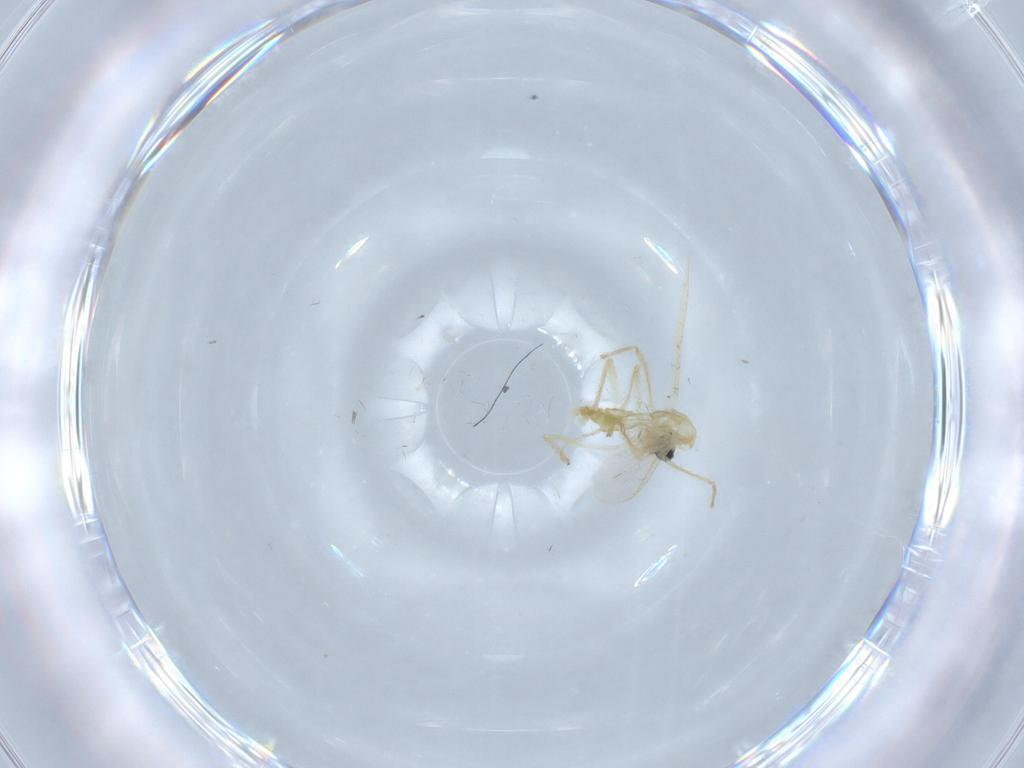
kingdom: Animalia
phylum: Arthropoda
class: Insecta
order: Diptera
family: Chironomidae
